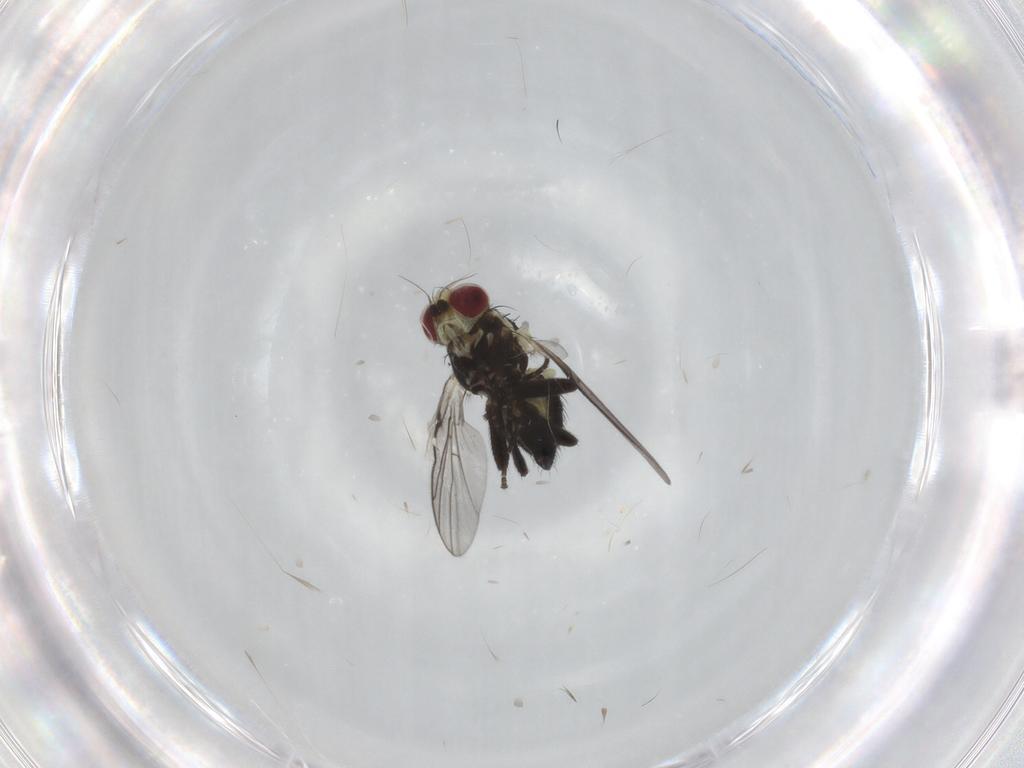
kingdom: Animalia
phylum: Arthropoda
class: Insecta
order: Diptera
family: Agromyzidae
